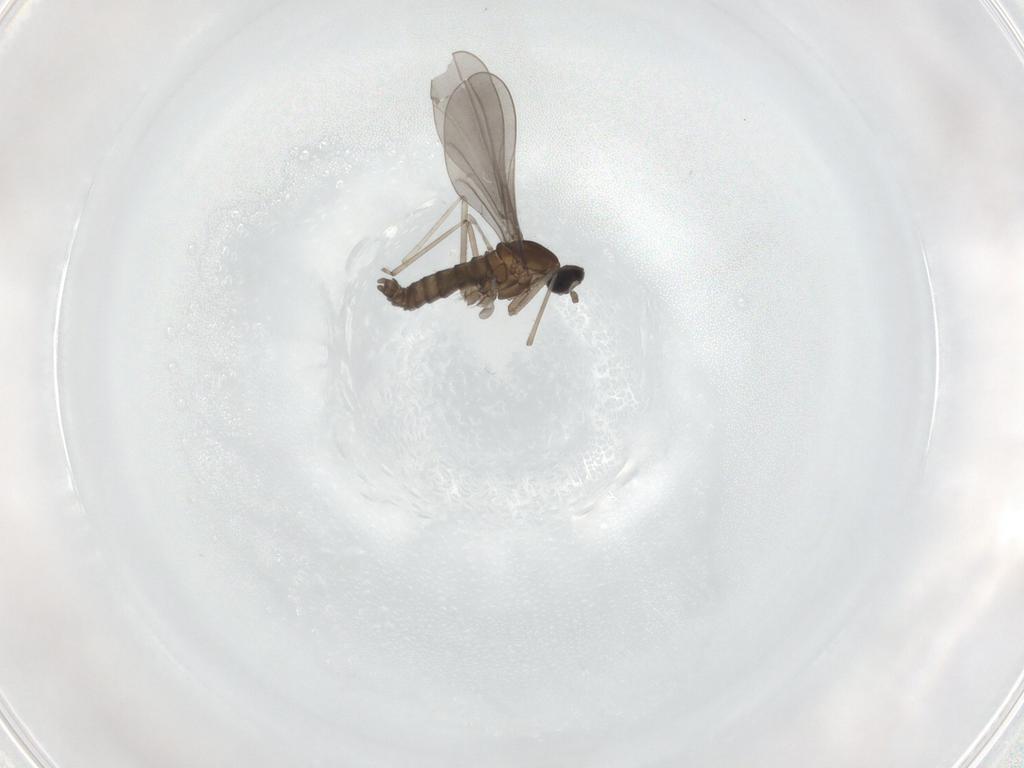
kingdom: Animalia
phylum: Arthropoda
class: Insecta
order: Diptera
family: Cecidomyiidae
